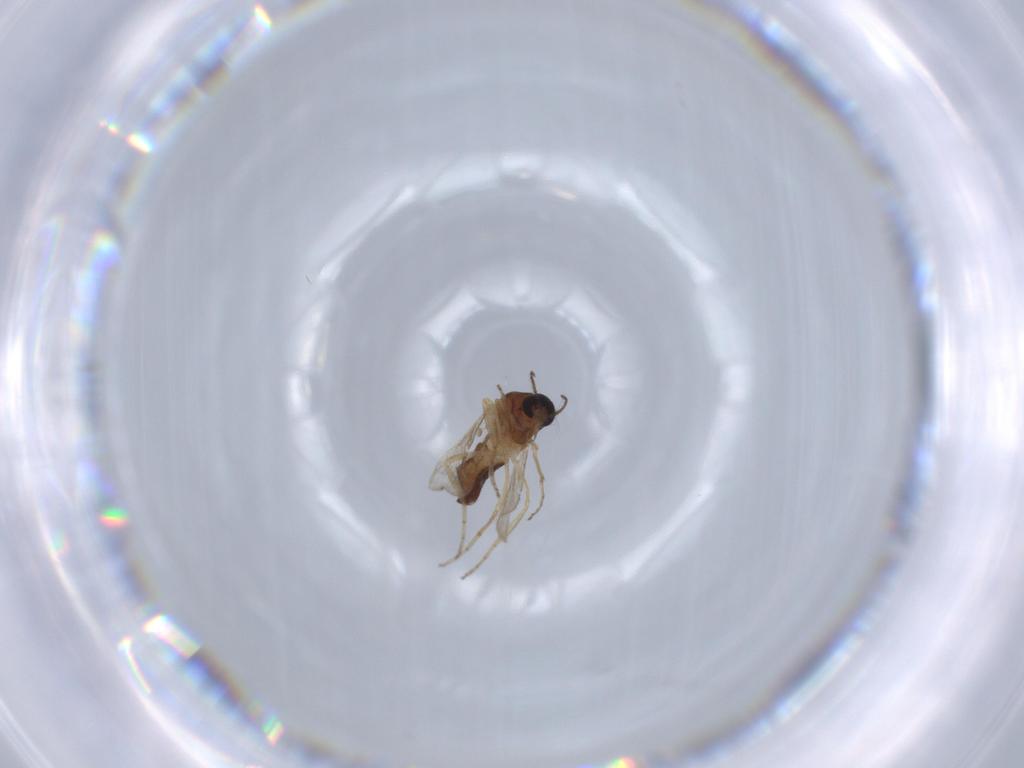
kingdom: Animalia
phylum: Arthropoda
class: Insecta
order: Diptera
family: Ceratopogonidae
